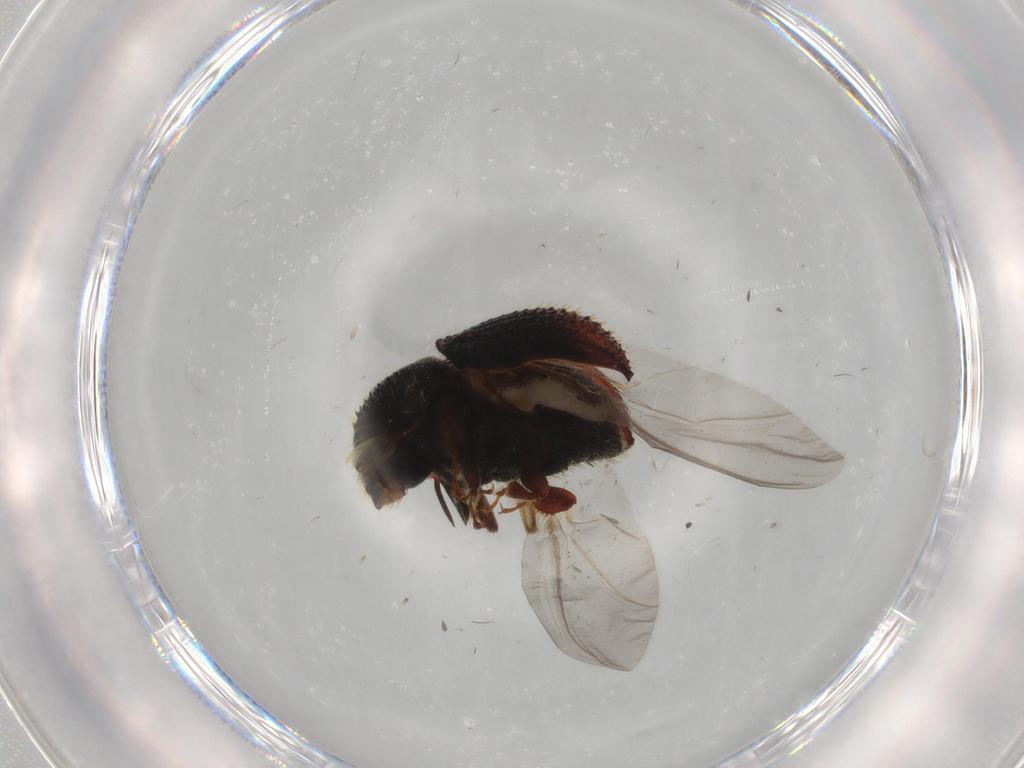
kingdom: Animalia
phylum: Arthropoda
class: Insecta
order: Coleoptera
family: Curculionidae
